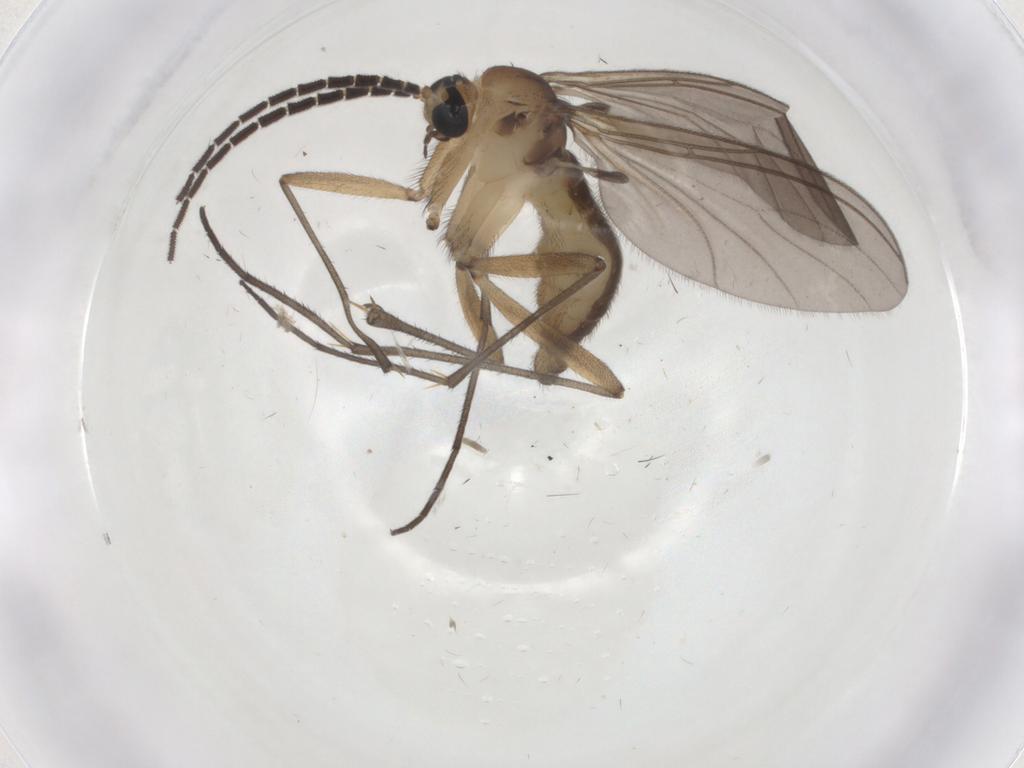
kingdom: Animalia
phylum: Arthropoda
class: Insecta
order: Diptera
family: Sciaridae
